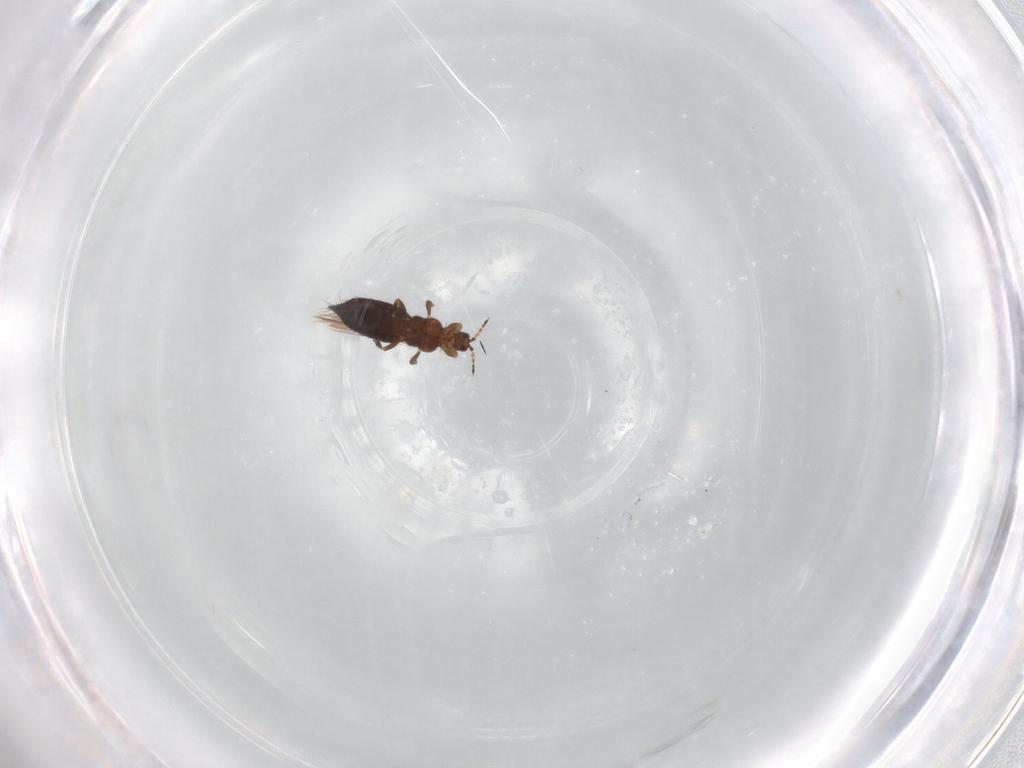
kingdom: Animalia
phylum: Arthropoda
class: Insecta
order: Thysanoptera
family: Thripidae
